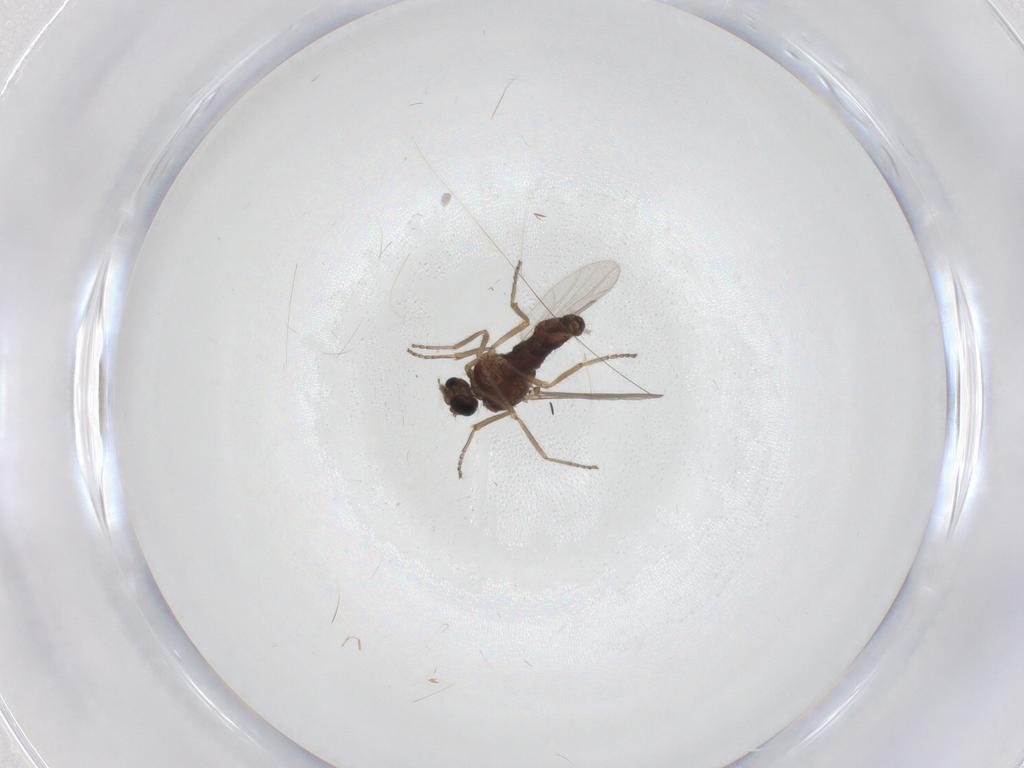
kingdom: Animalia
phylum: Arthropoda
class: Insecta
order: Diptera
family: Ceratopogonidae
